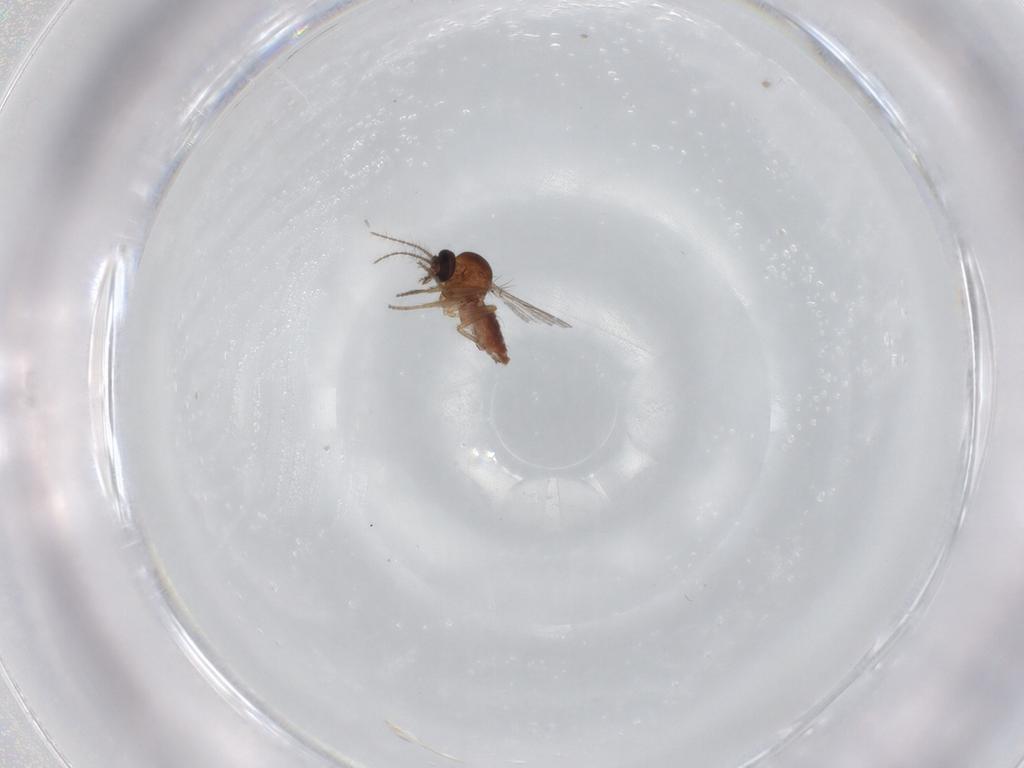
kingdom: Animalia
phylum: Arthropoda
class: Insecta
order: Diptera
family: Ceratopogonidae
